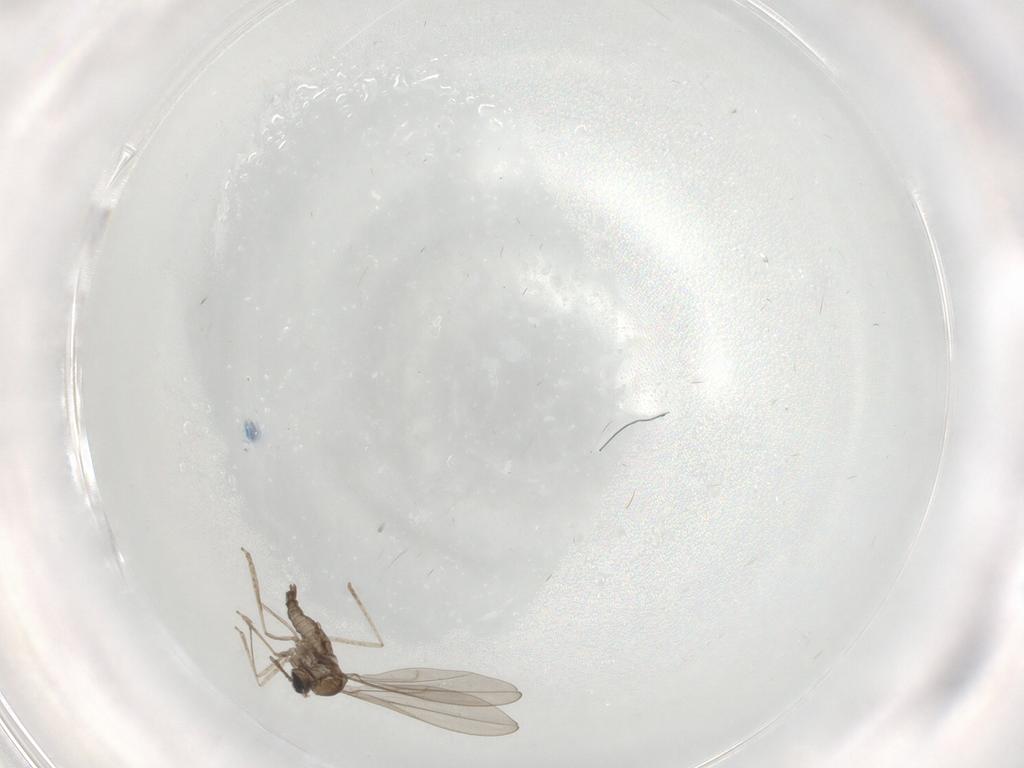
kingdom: Animalia
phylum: Arthropoda
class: Insecta
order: Diptera
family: Cecidomyiidae
